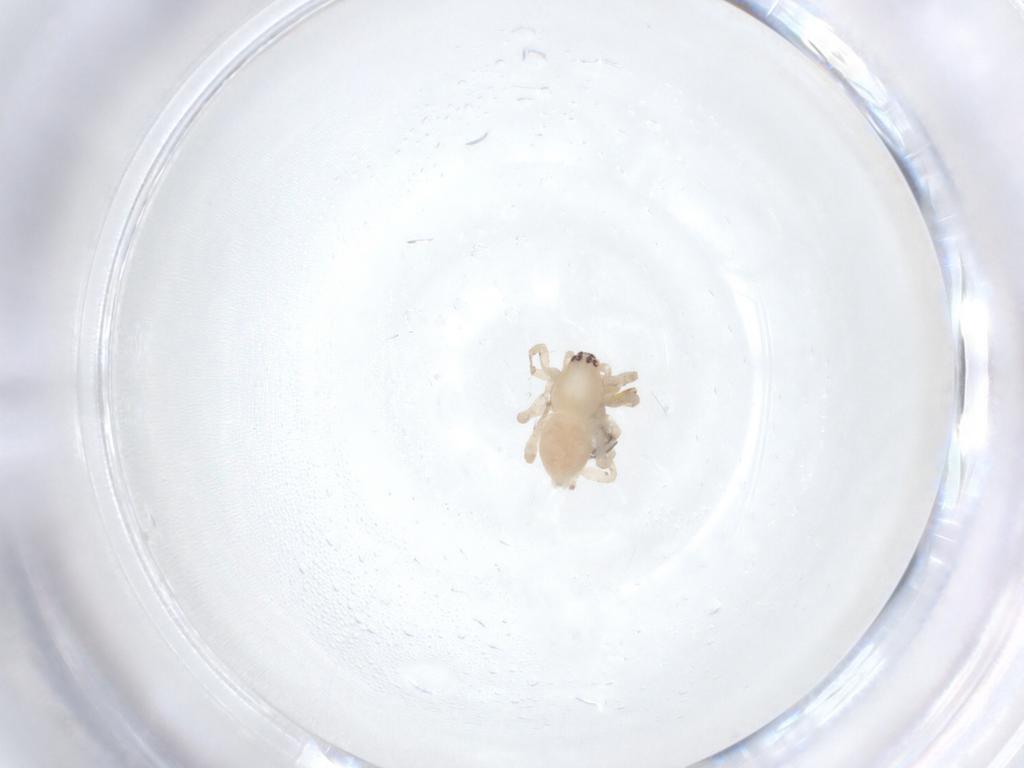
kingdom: Animalia
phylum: Arthropoda
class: Arachnida
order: Araneae
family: Anyphaenidae
